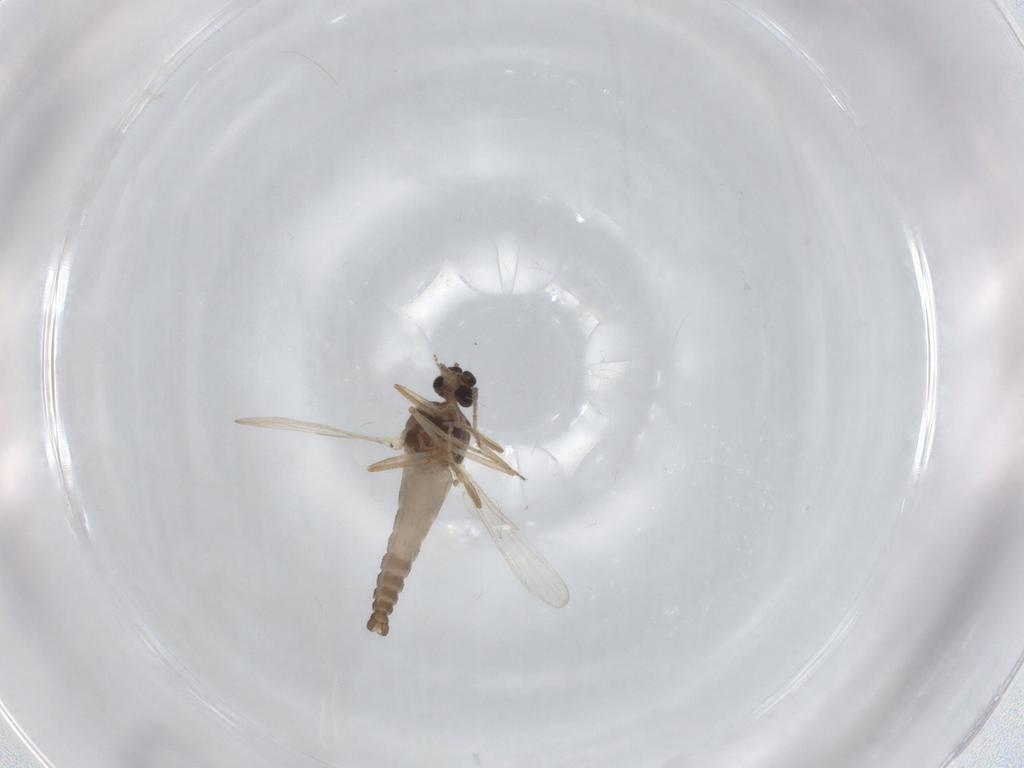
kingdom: Animalia
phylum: Arthropoda
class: Insecta
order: Diptera
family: Ceratopogonidae
